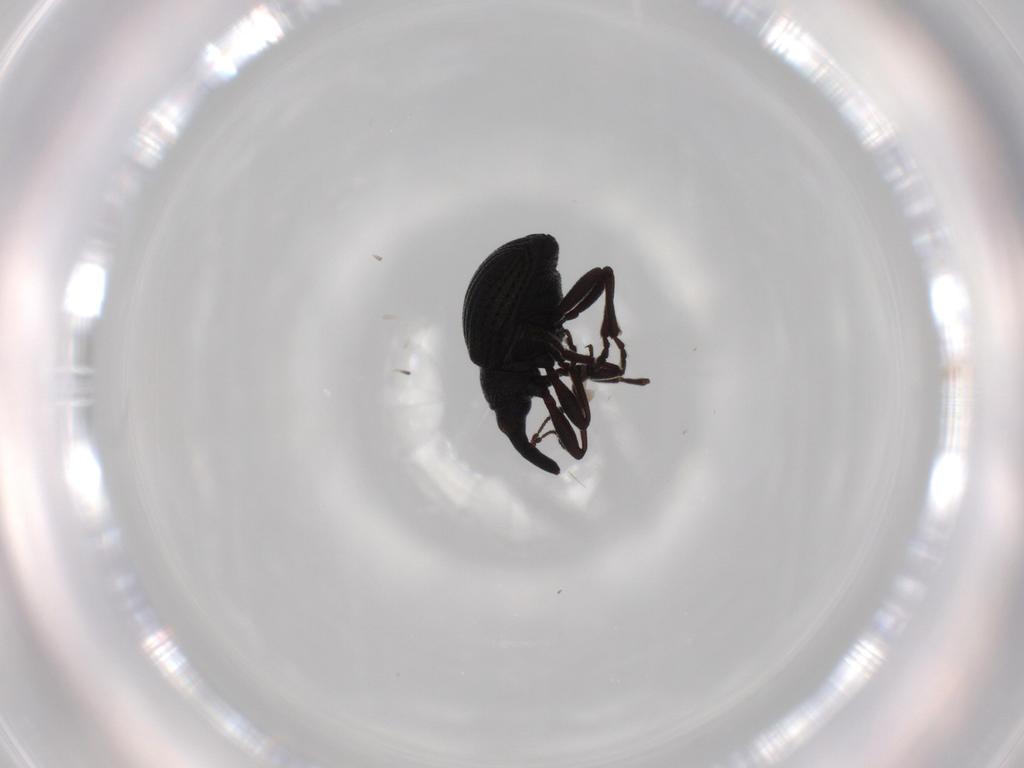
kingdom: Animalia
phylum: Arthropoda
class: Insecta
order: Coleoptera
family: Brentidae
